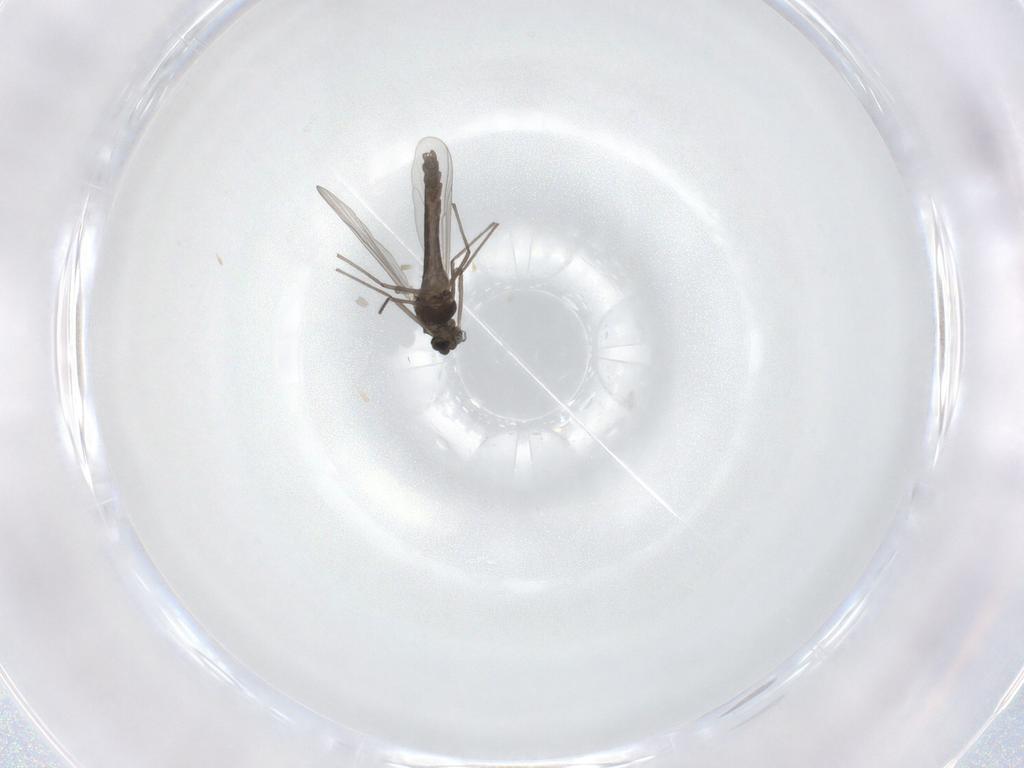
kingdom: Animalia
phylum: Arthropoda
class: Insecta
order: Diptera
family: Chironomidae
